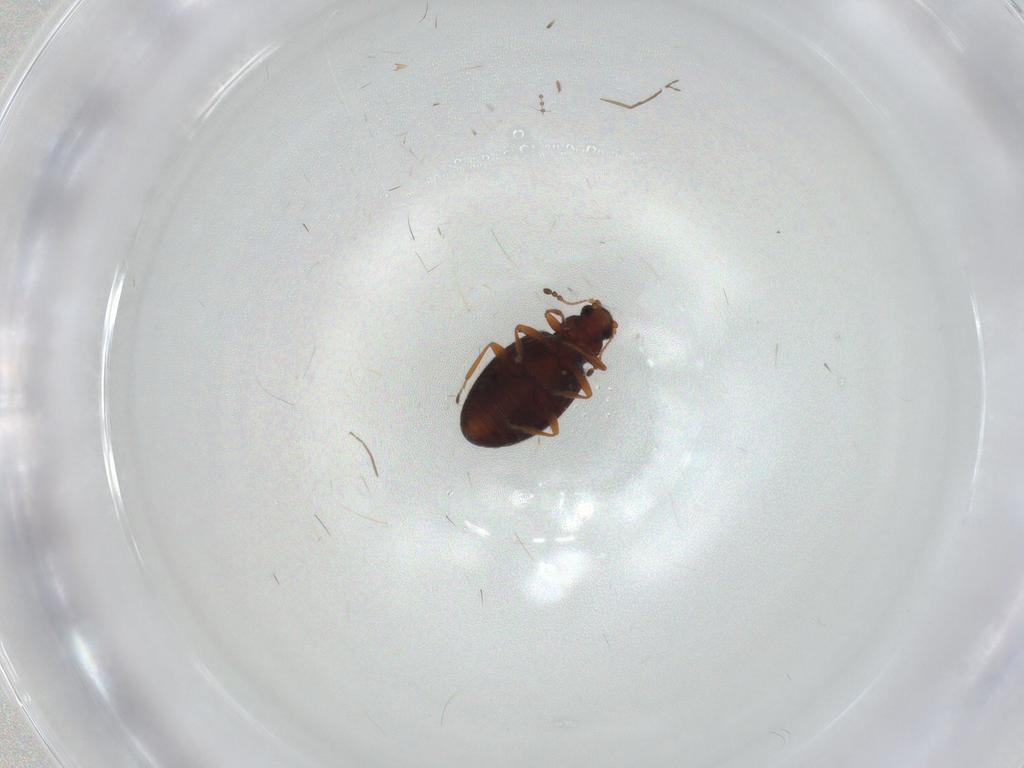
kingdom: Animalia
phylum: Arthropoda
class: Insecta
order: Coleoptera
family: Latridiidae
